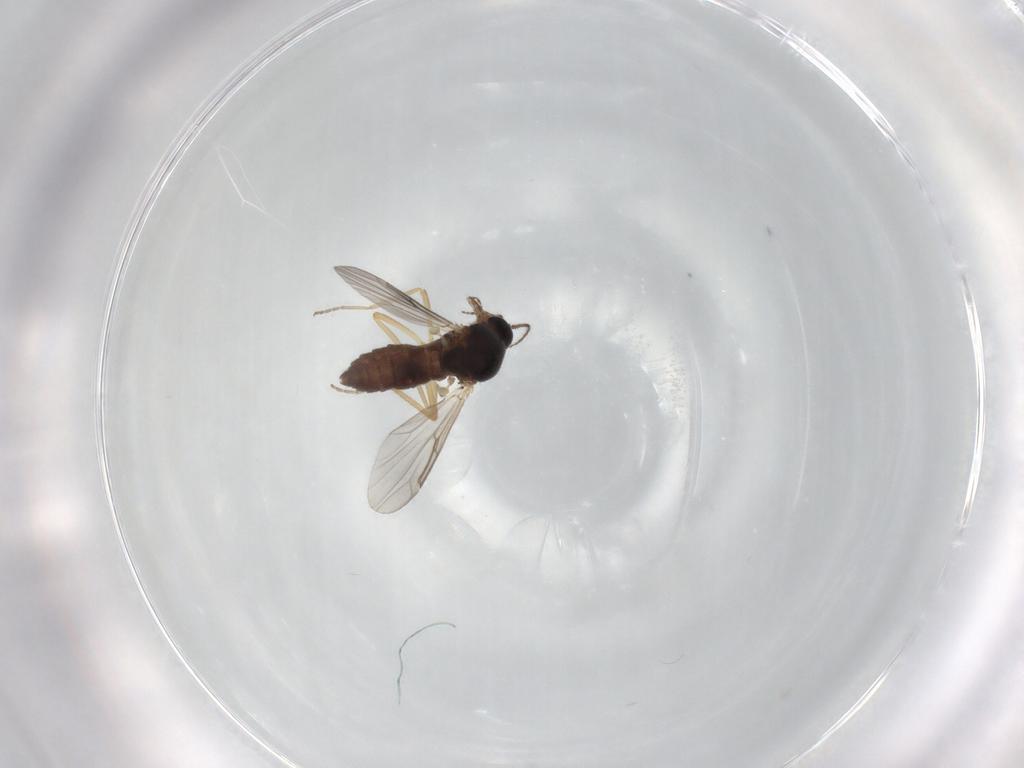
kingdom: Animalia
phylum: Arthropoda
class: Insecta
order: Diptera
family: Ceratopogonidae
